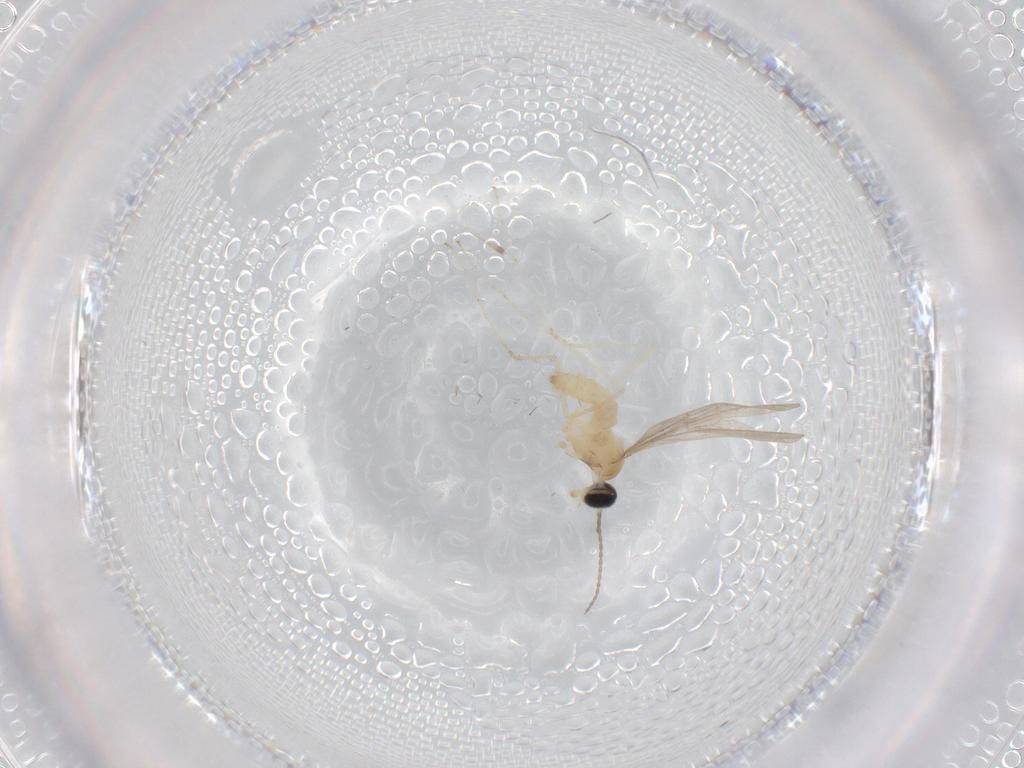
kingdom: Animalia
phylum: Arthropoda
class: Insecta
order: Diptera
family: Cecidomyiidae
